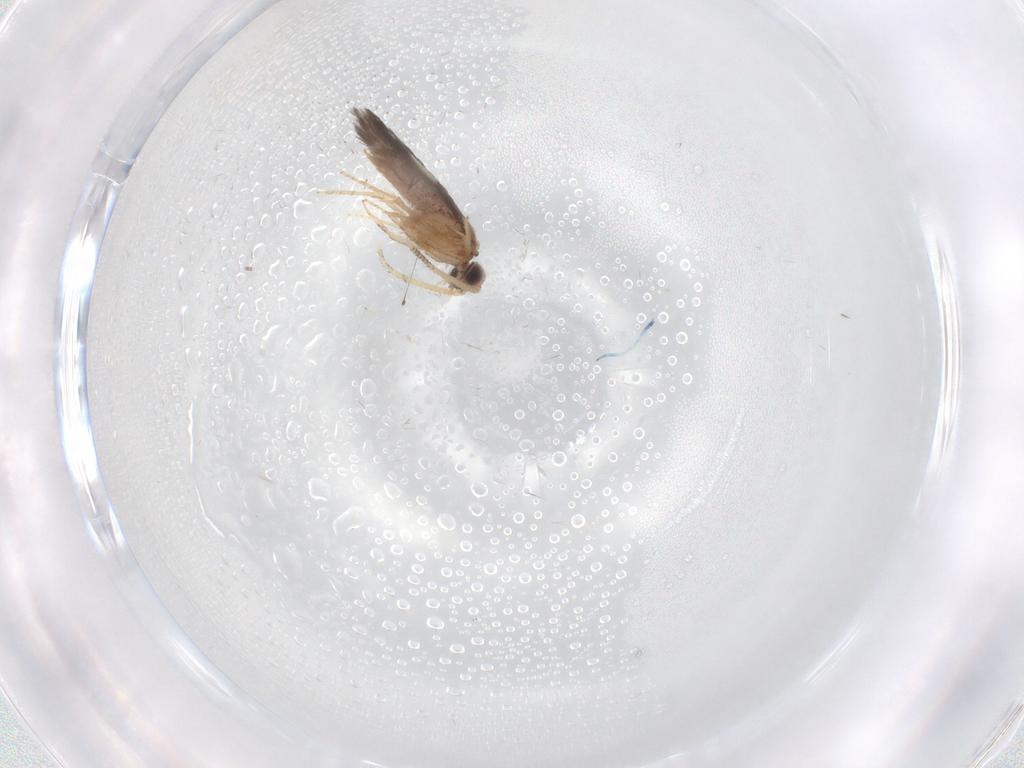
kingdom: Animalia
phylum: Arthropoda
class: Insecta
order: Trichoptera
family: Hydroptilidae
